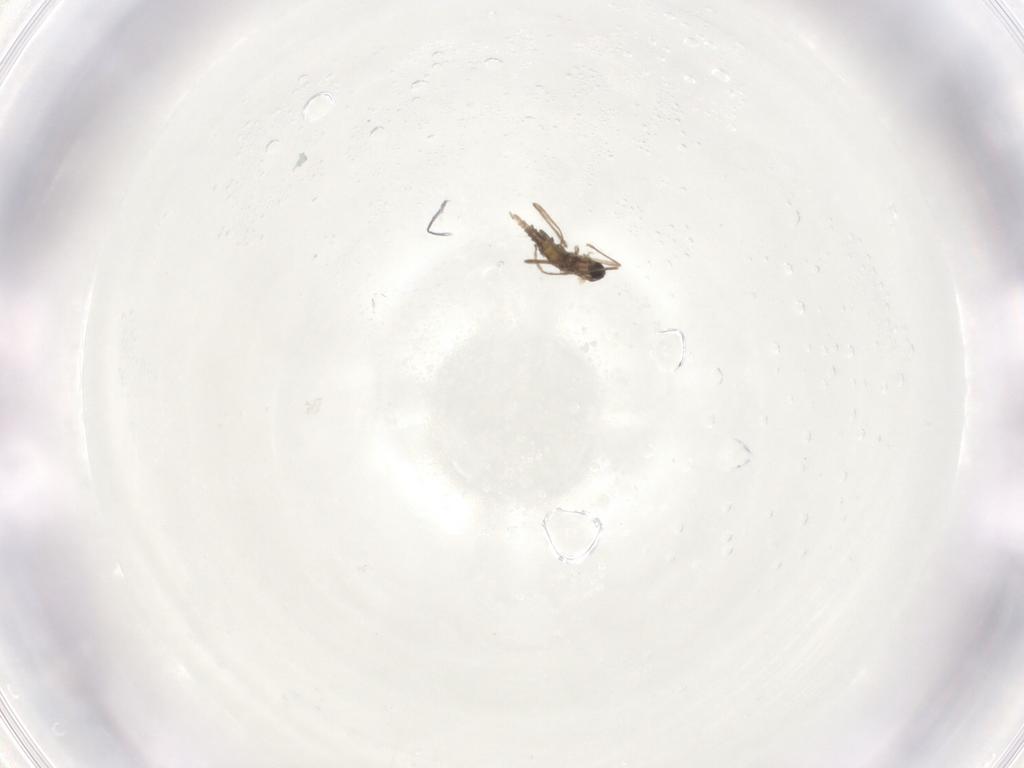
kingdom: Animalia
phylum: Arthropoda
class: Insecta
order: Diptera
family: Cecidomyiidae
